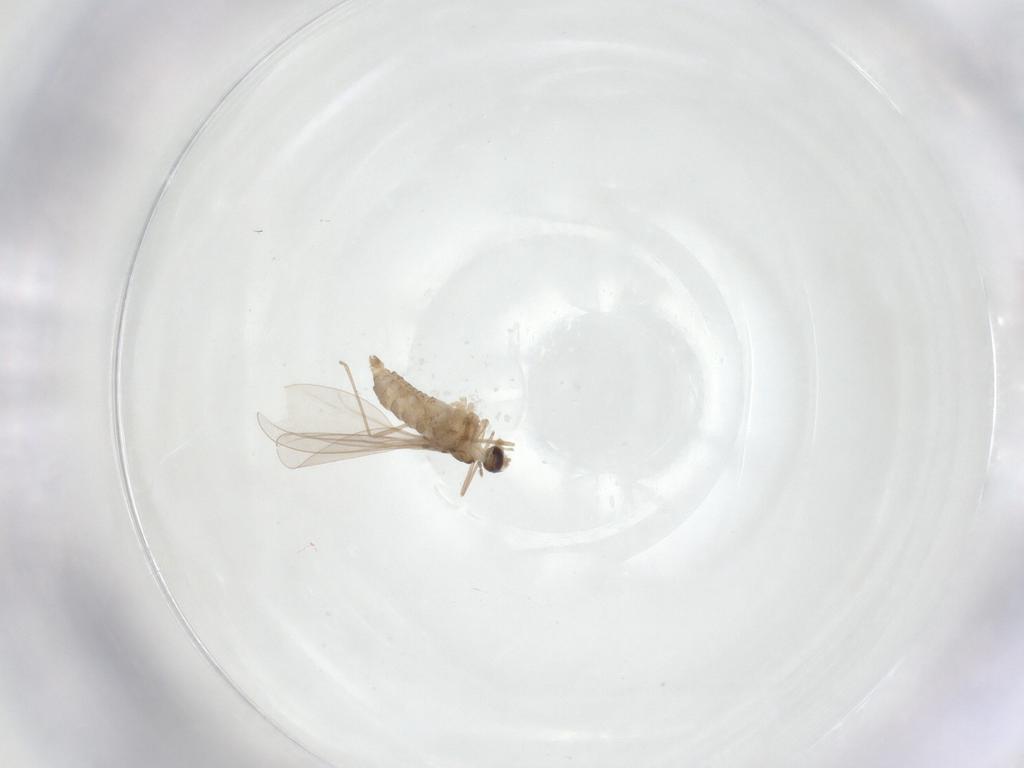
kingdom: Animalia
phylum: Arthropoda
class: Insecta
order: Diptera
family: Cecidomyiidae
